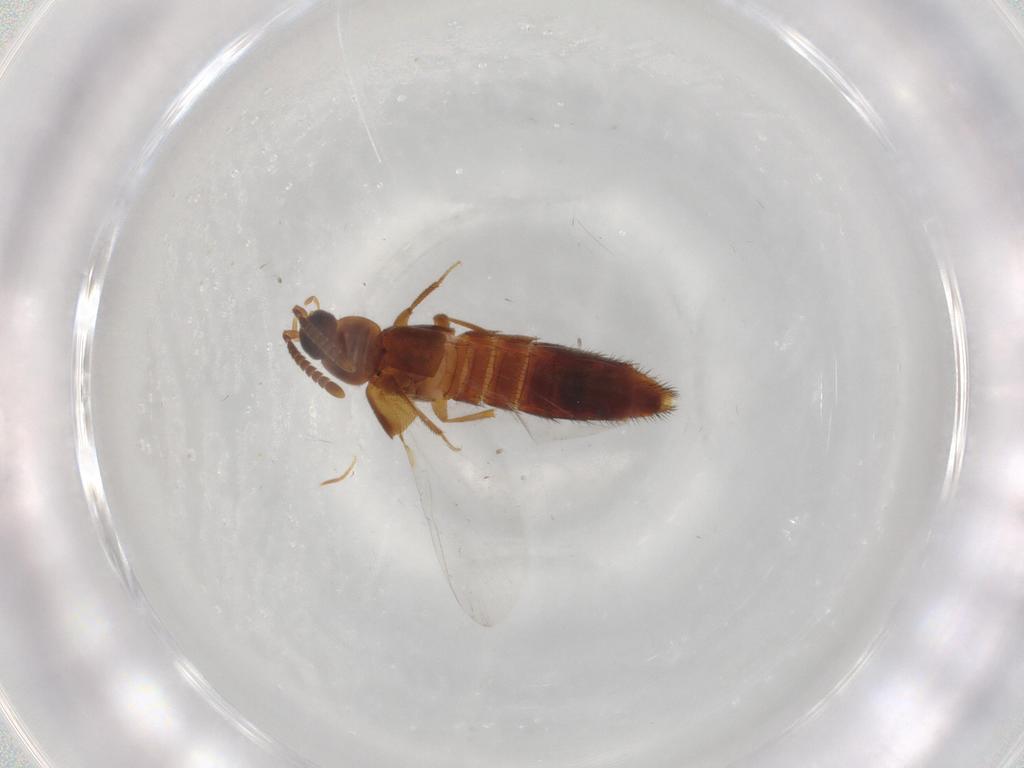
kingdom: Animalia
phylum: Arthropoda
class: Insecta
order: Coleoptera
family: Staphylinidae
